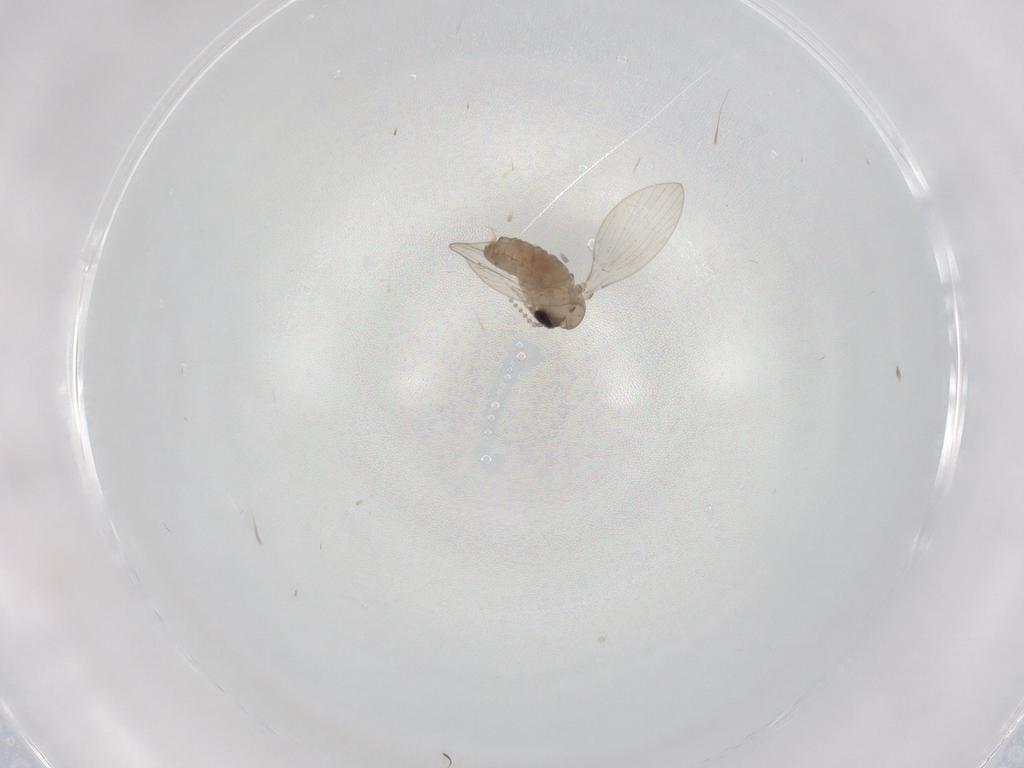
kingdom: Animalia
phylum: Arthropoda
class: Insecta
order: Diptera
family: Psychodidae
